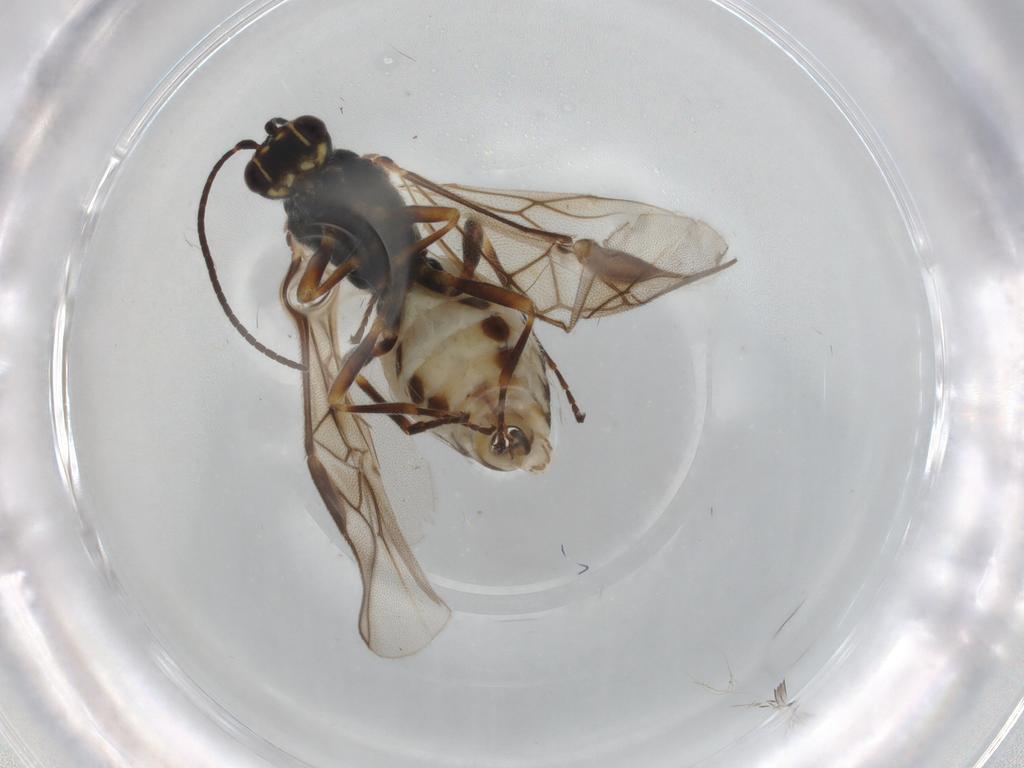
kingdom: Animalia
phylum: Arthropoda
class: Insecta
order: Hymenoptera
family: Braconidae
